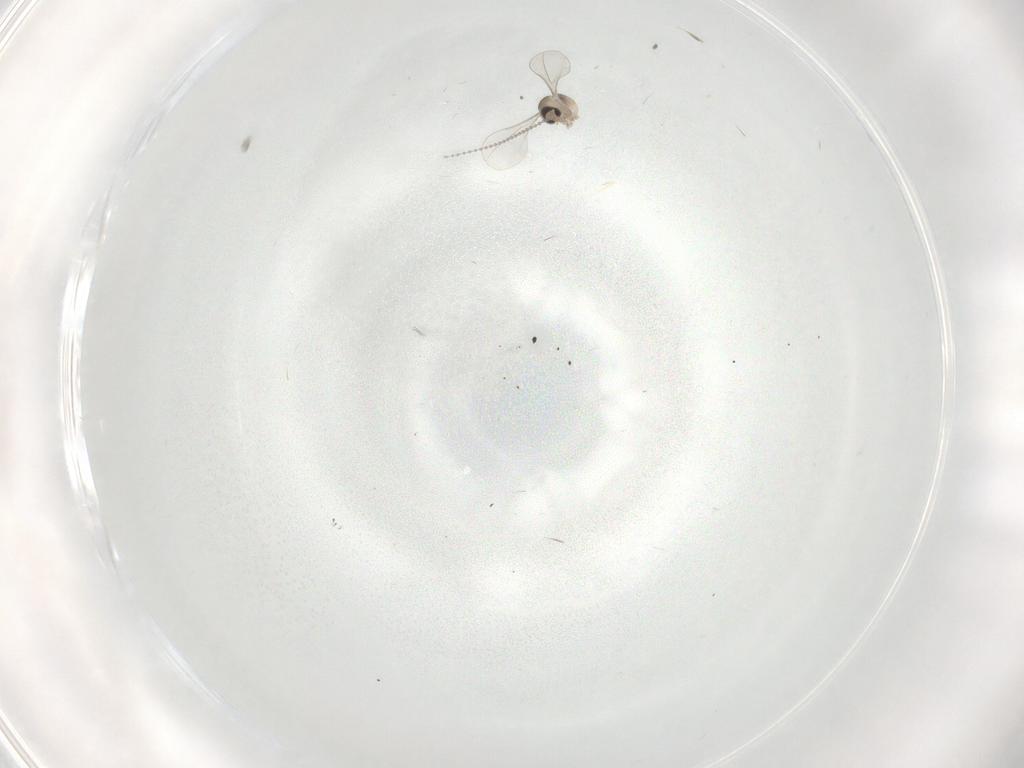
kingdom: Animalia
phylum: Arthropoda
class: Insecta
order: Diptera
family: Cecidomyiidae
